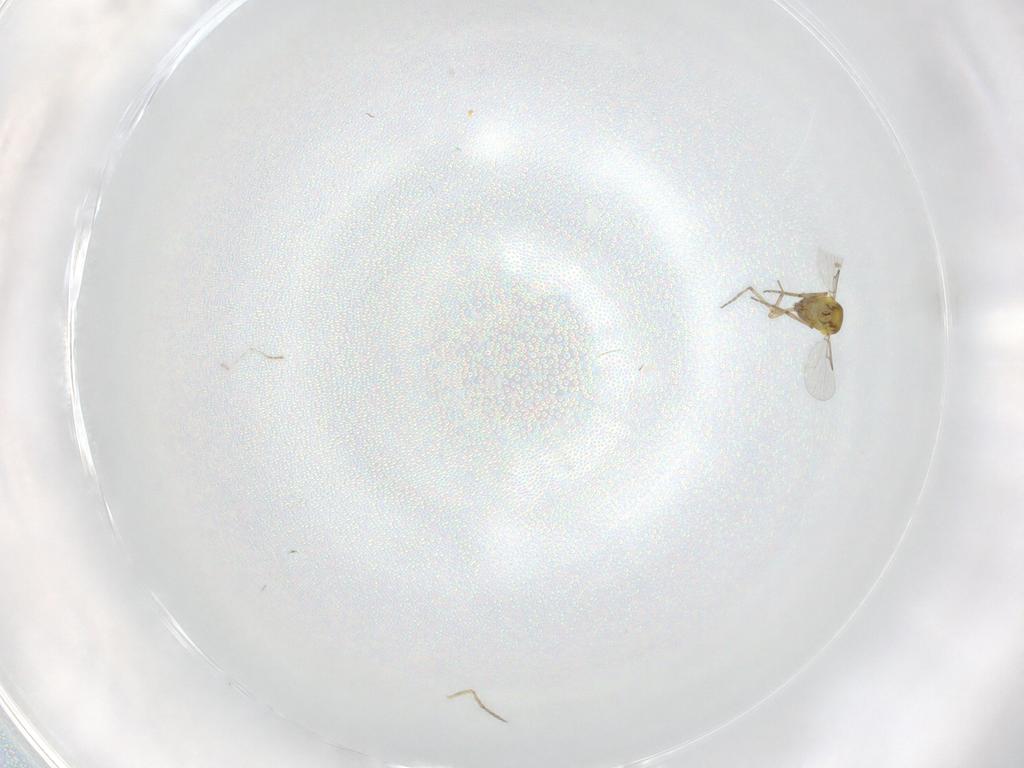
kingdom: Animalia
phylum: Arthropoda
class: Insecta
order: Diptera
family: Ceratopogonidae
